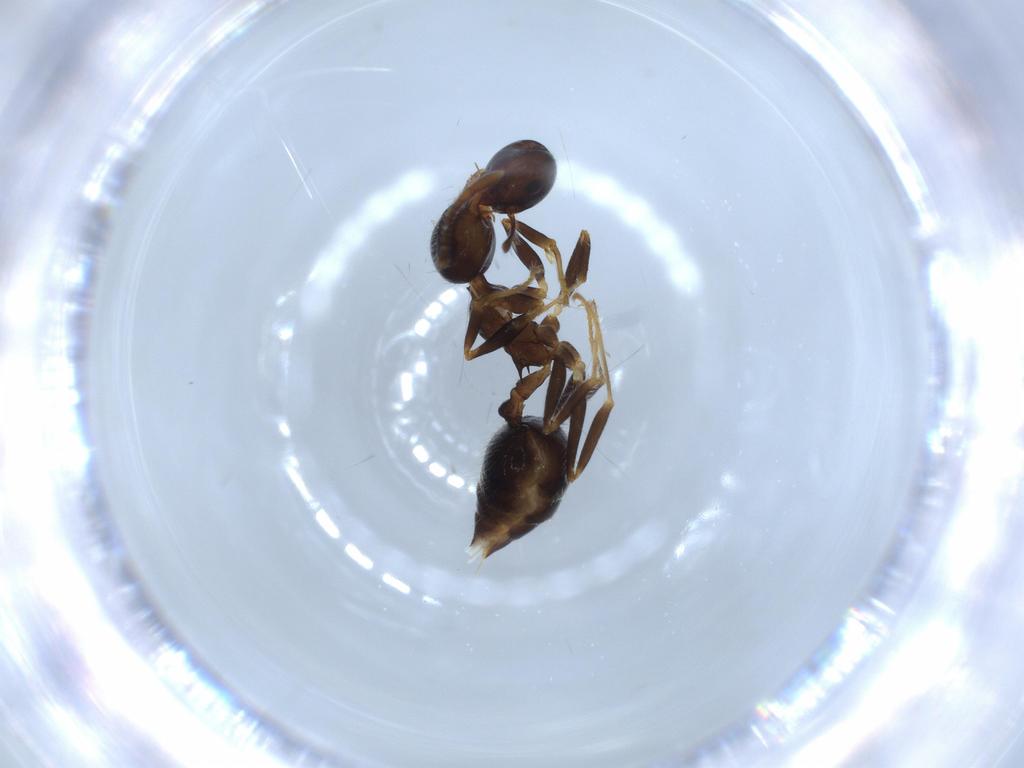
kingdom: Animalia
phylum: Arthropoda
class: Insecta
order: Hymenoptera
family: Formicidae
